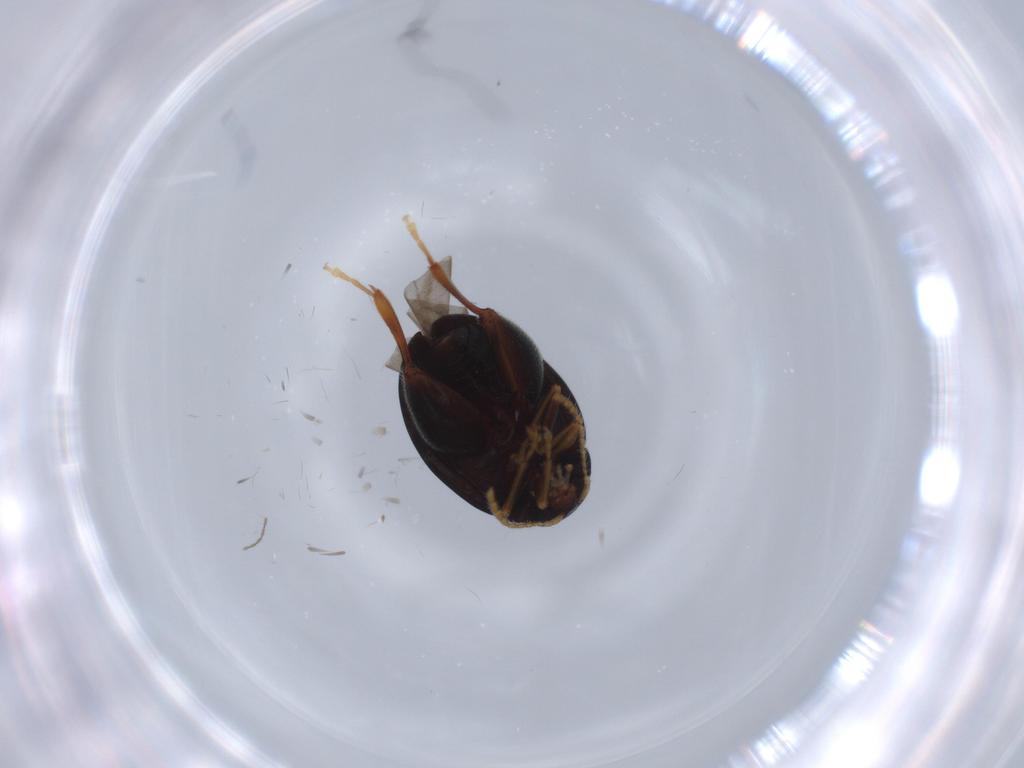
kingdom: Animalia
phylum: Arthropoda
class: Insecta
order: Coleoptera
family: Chrysomelidae
